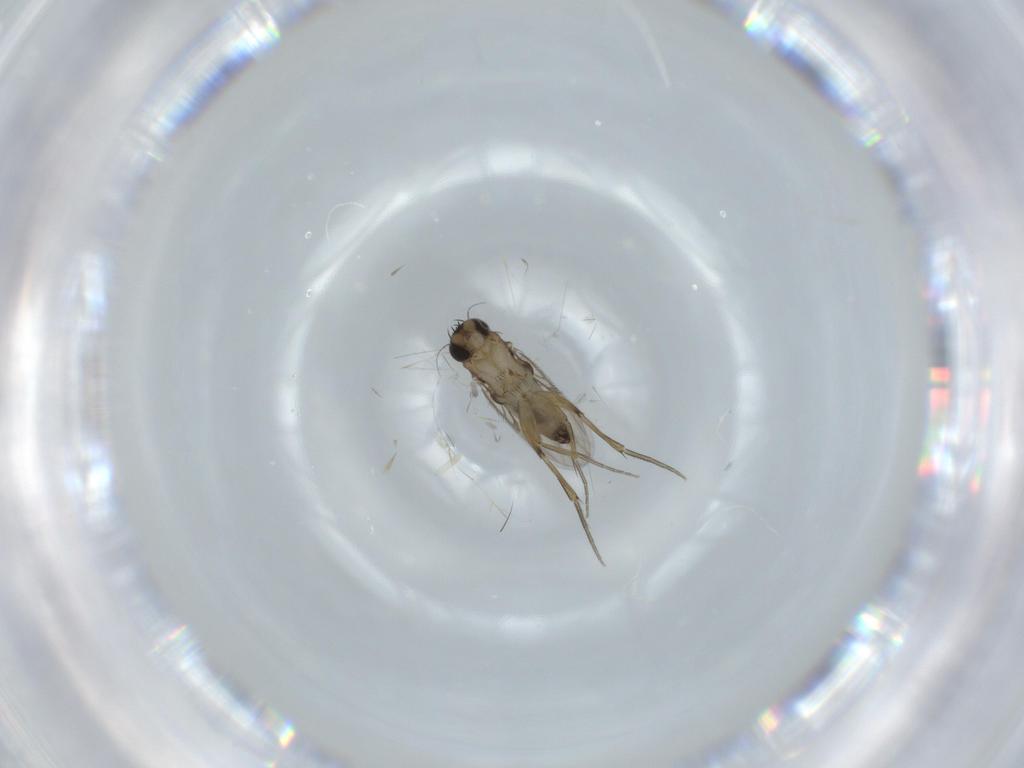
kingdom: Animalia
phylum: Arthropoda
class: Insecta
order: Diptera
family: Phoridae
